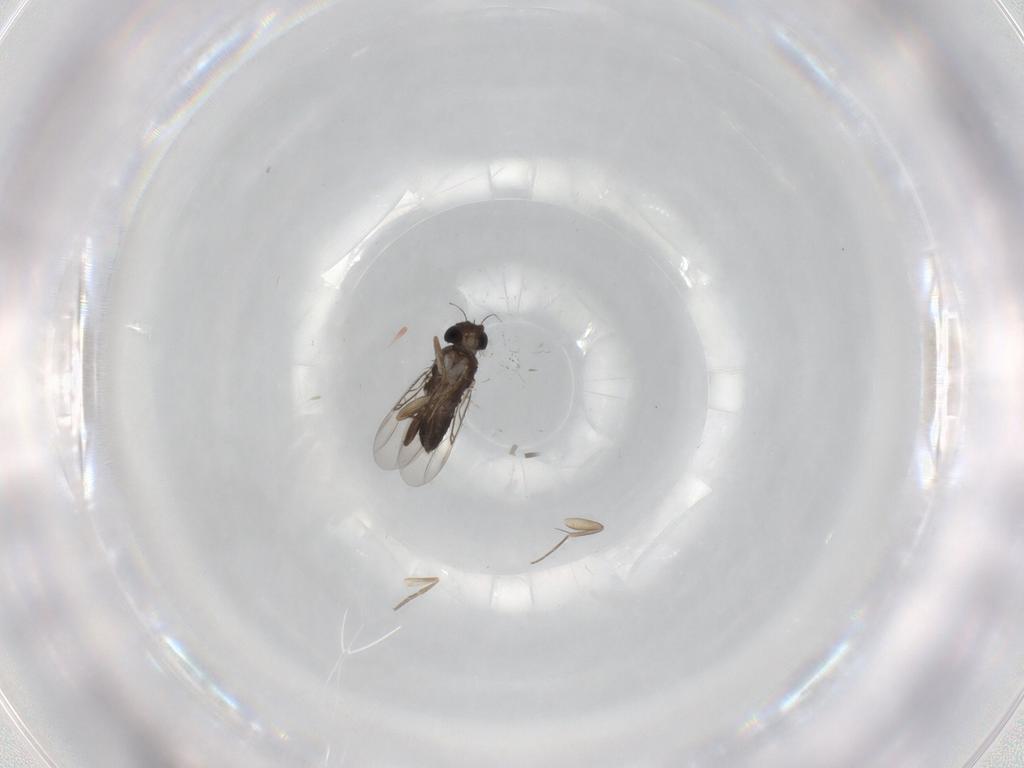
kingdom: Animalia
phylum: Arthropoda
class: Insecta
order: Diptera
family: Phoridae
